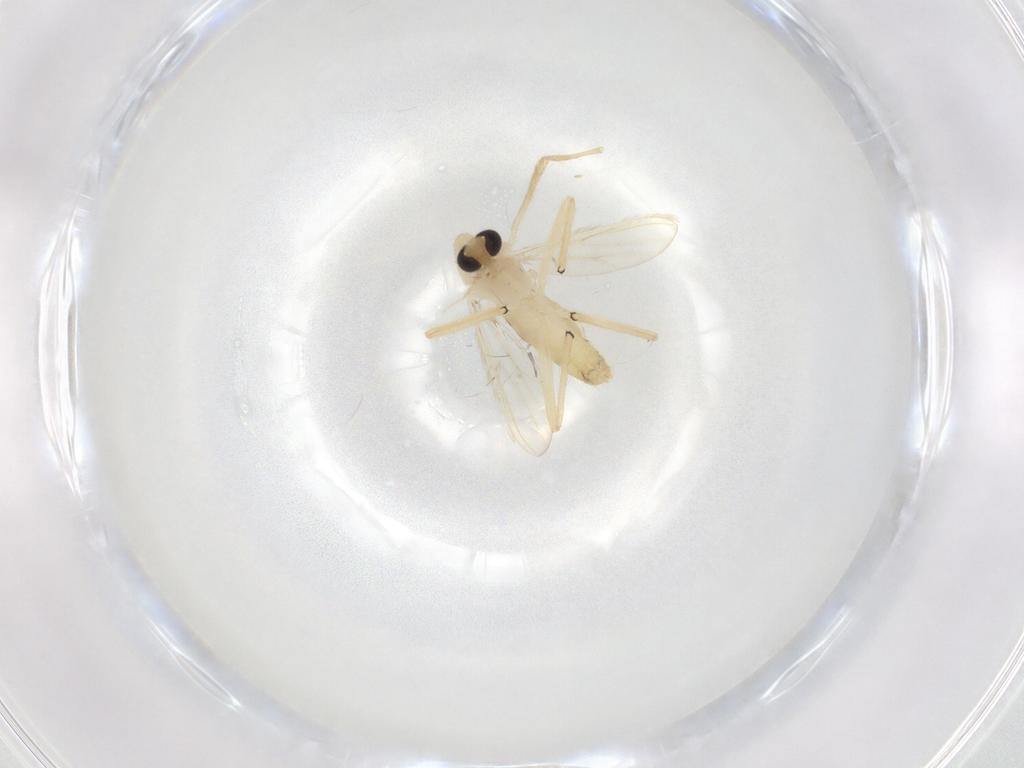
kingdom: Animalia
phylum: Arthropoda
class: Insecta
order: Diptera
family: Chironomidae
